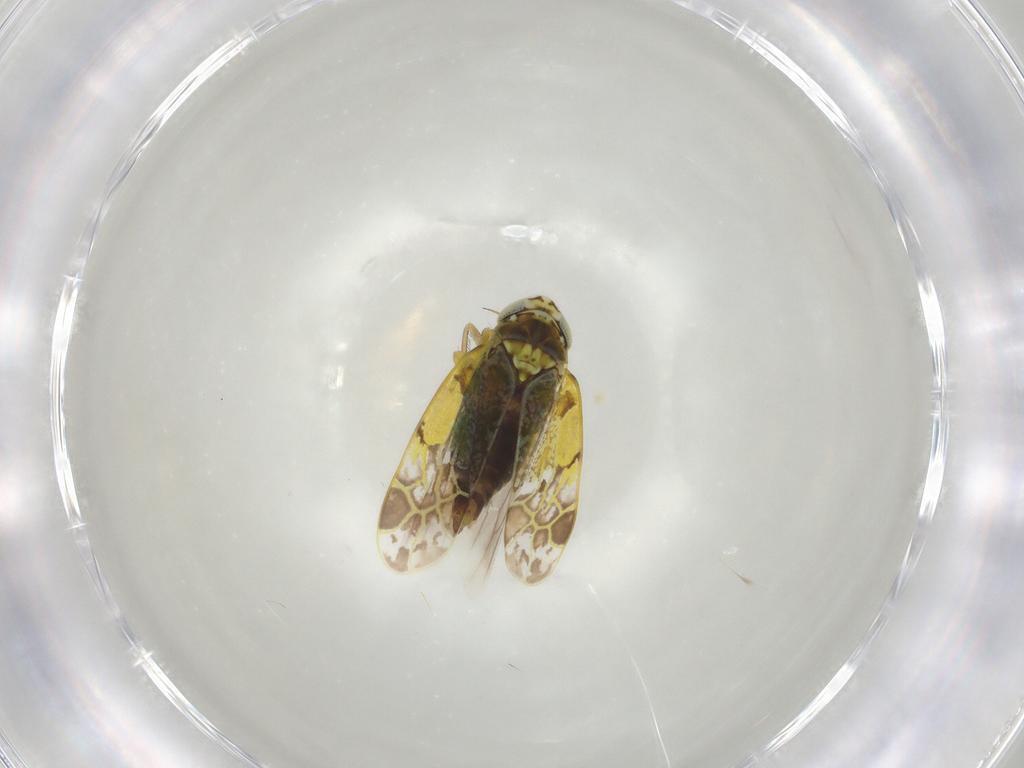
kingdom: Animalia
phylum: Arthropoda
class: Insecta
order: Hemiptera
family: Cicadellidae
